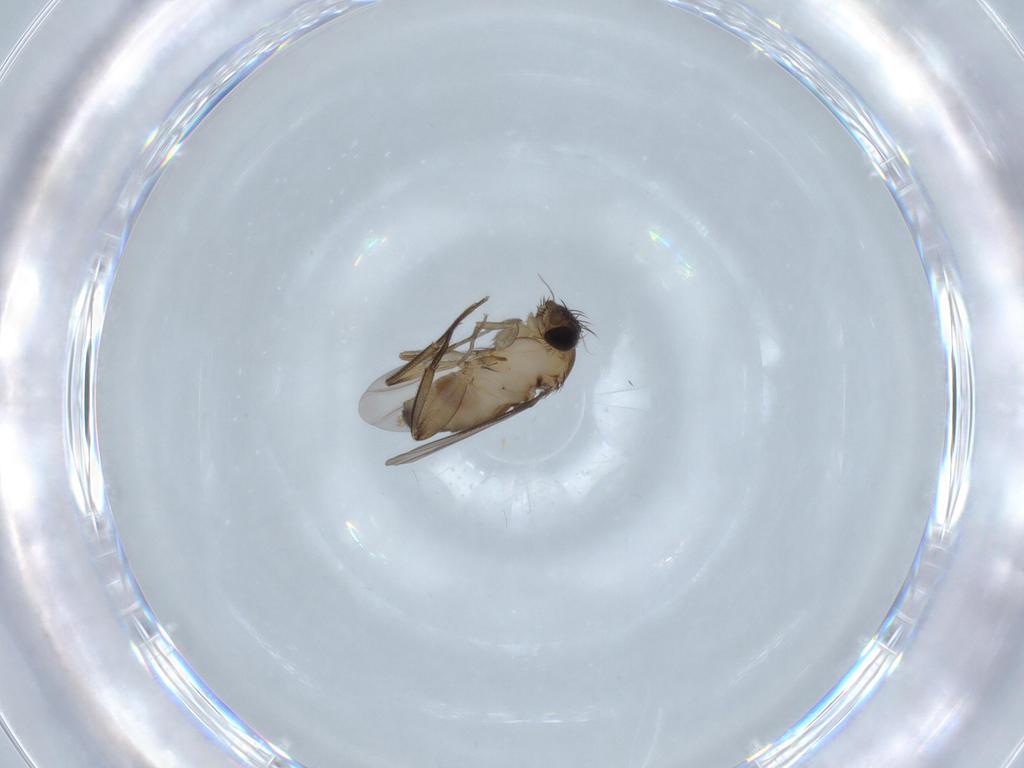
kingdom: Animalia
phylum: Arthropoda
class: Insecta
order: Diptera
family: Phoridae
